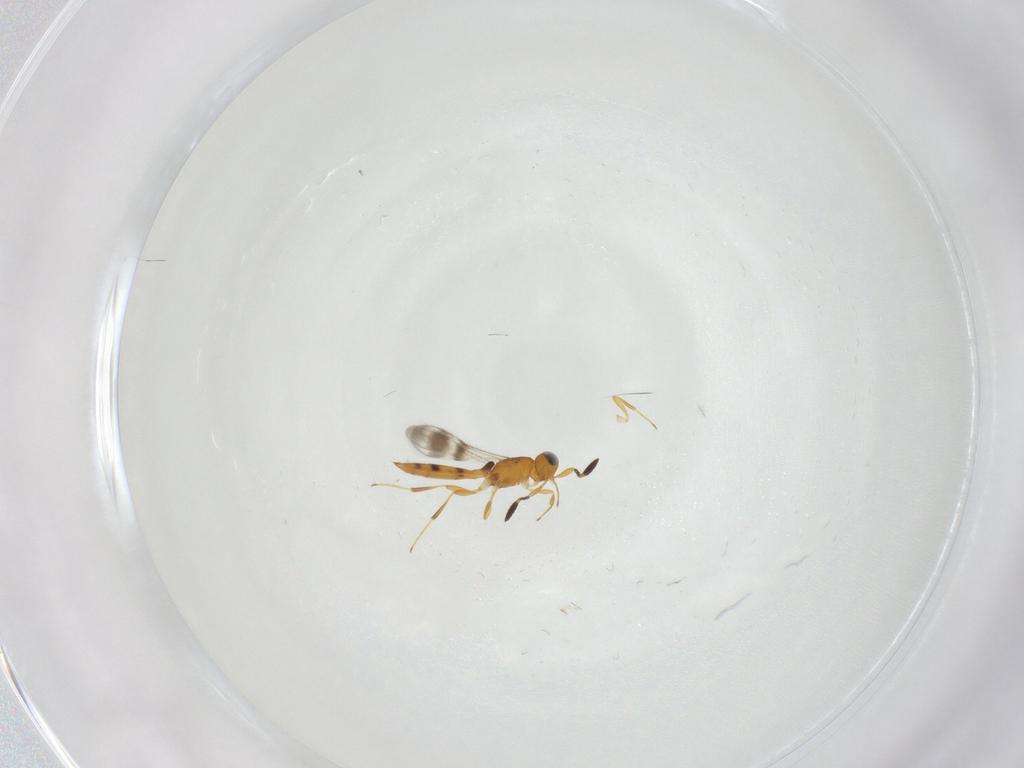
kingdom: Animalia
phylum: Arthropoda
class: Insecta
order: Hymenoptera
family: Scelionidae
